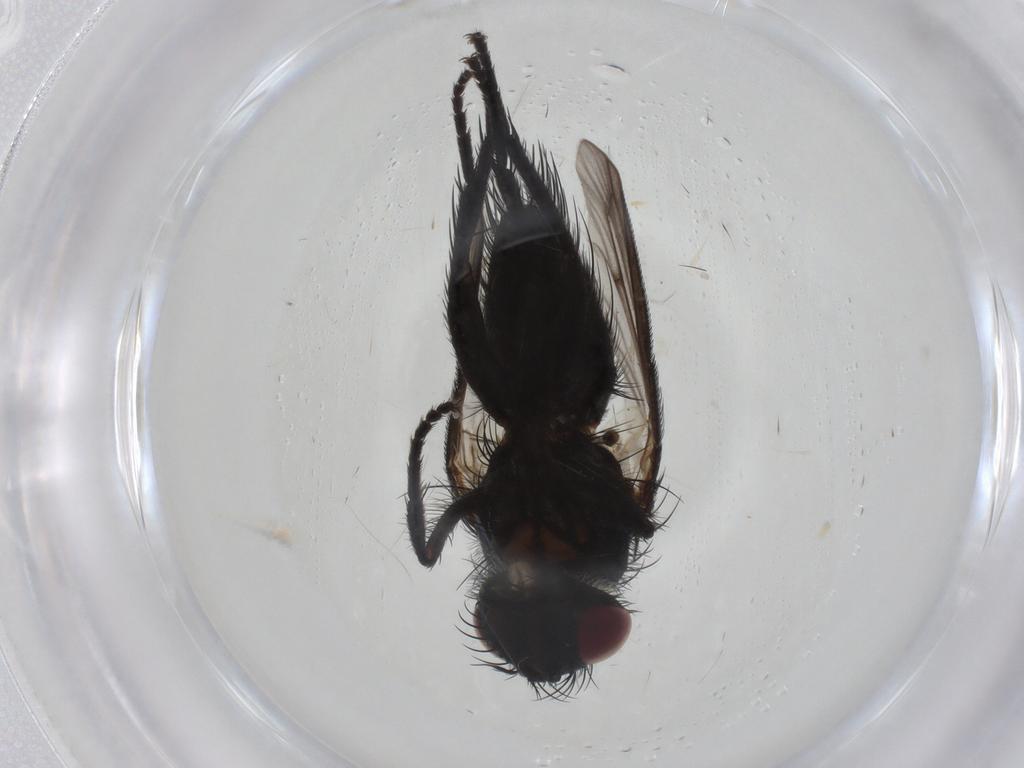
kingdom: Animalia
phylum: Arthropoda
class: Insecta
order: Diptera
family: Tachinidae
